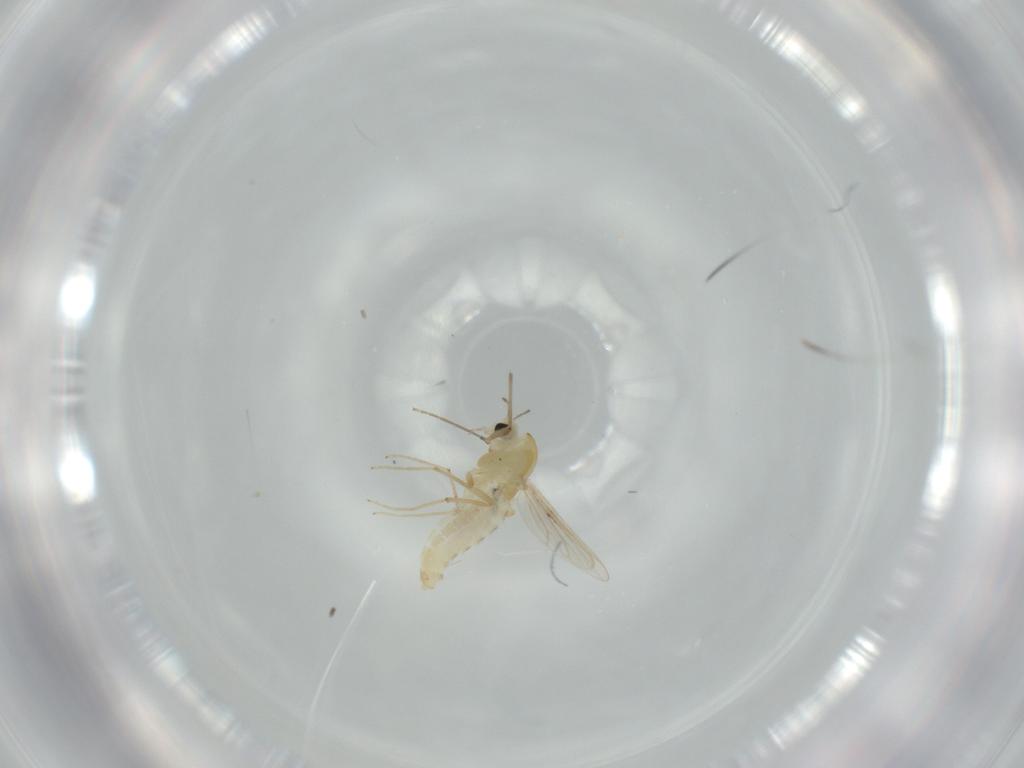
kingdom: Animalia
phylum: Arthropoda
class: Insecta
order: Diptera
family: Chironomidae
